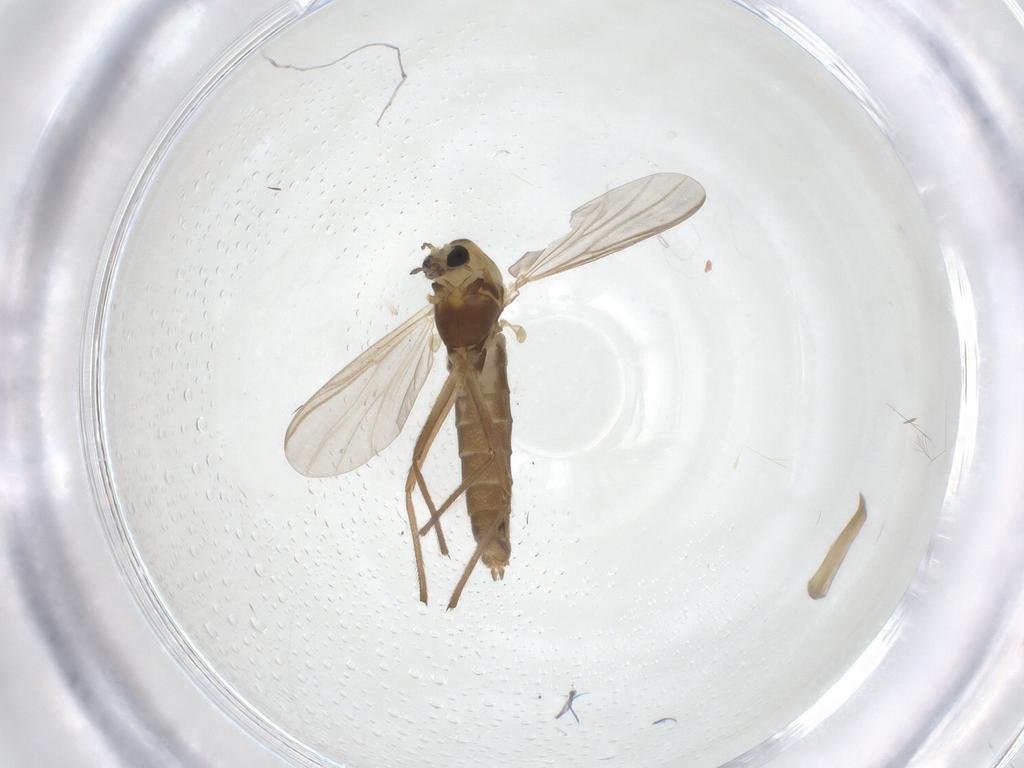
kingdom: Animalia
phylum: Arthropoda
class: Insecta
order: Diptera
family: Chironomidae
